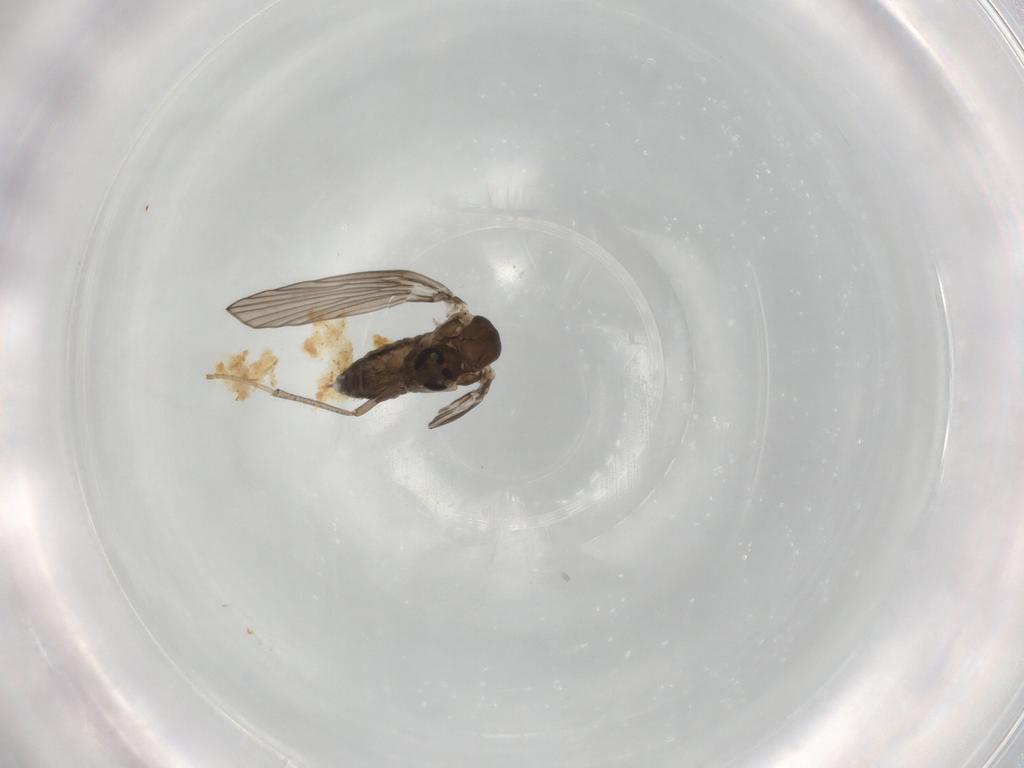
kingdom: Animalia
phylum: Arthropoda
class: Insecta
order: Diptera
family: Psychodidae
